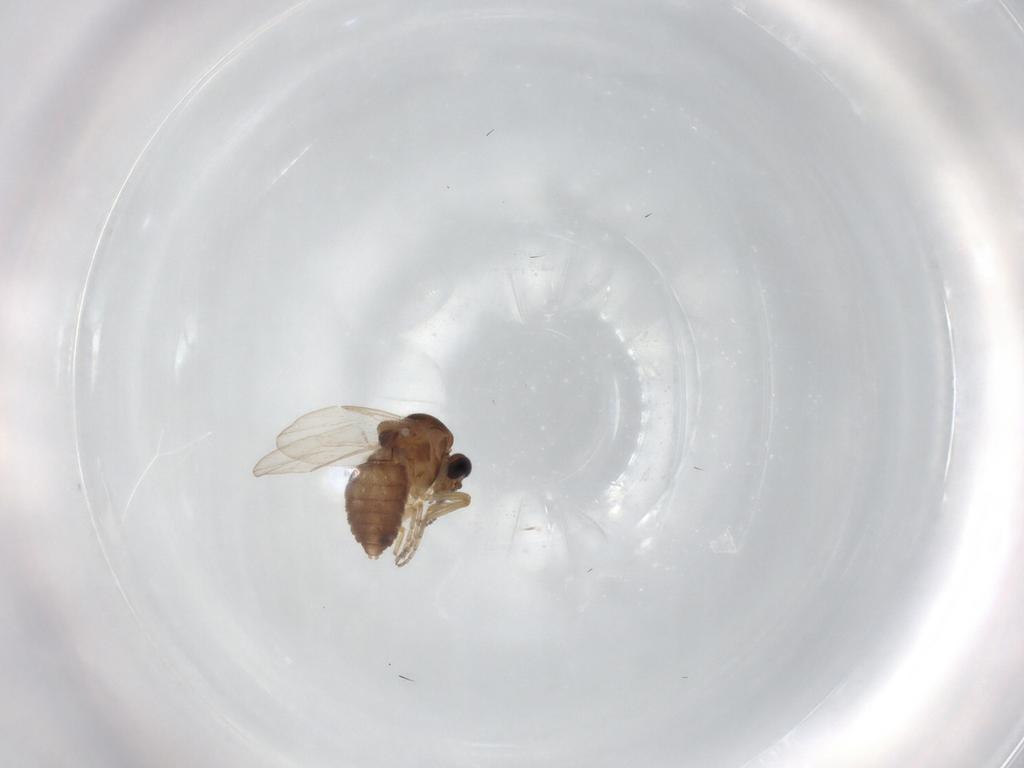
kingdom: Animalia
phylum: Arthropoda
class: Insecta
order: Diptera
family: Ceratopogonidae
